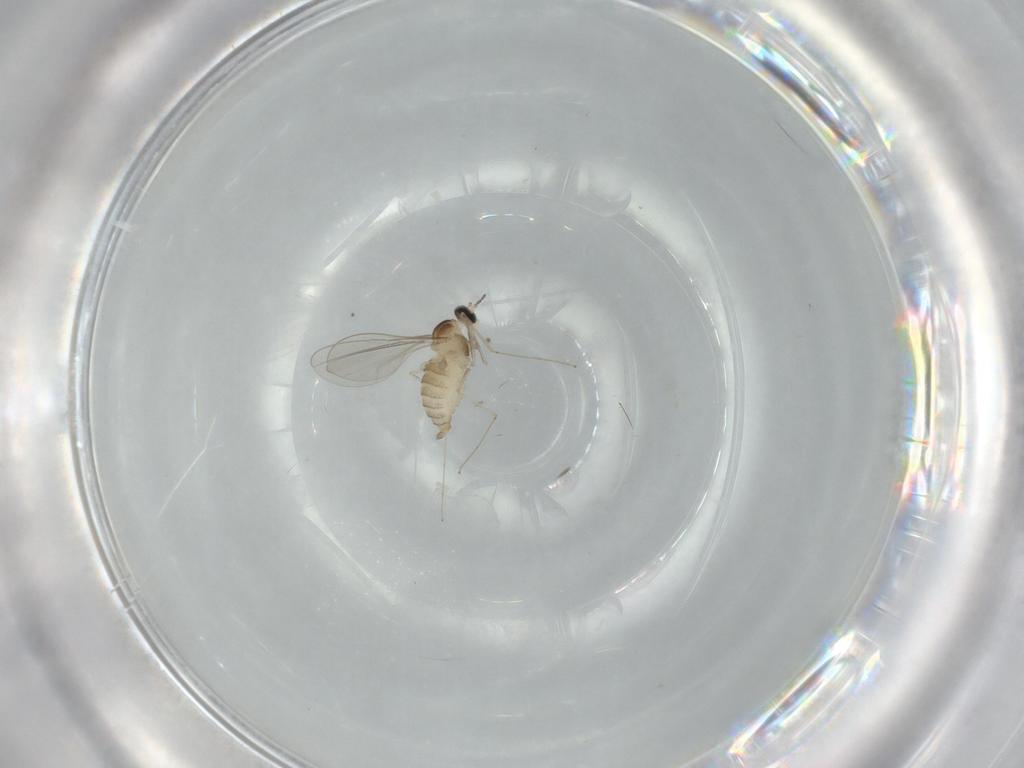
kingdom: Animalia
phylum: Arthropoda
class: Insecta
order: Diptera
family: Cecidomyiidae
